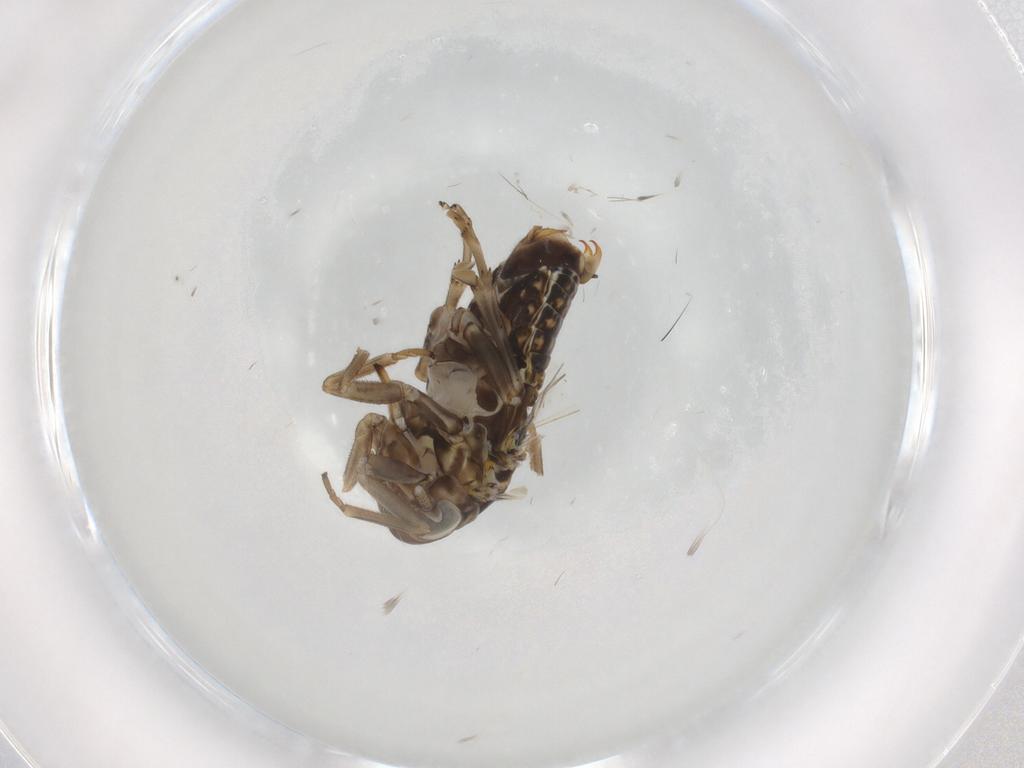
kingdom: Animalia
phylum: Arthropoda
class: Insecta
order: Hemiptera
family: Delphacidae
